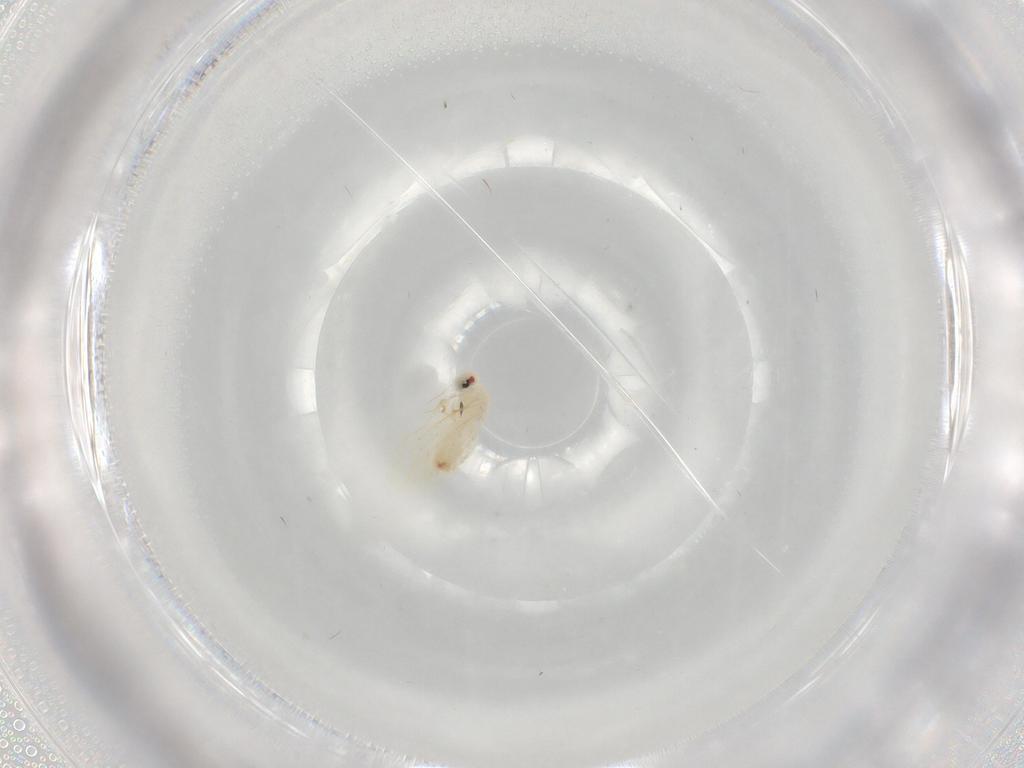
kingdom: Animalia
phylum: Arthropoda
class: Insecta
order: Hemiptera
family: Aleyrodidae
